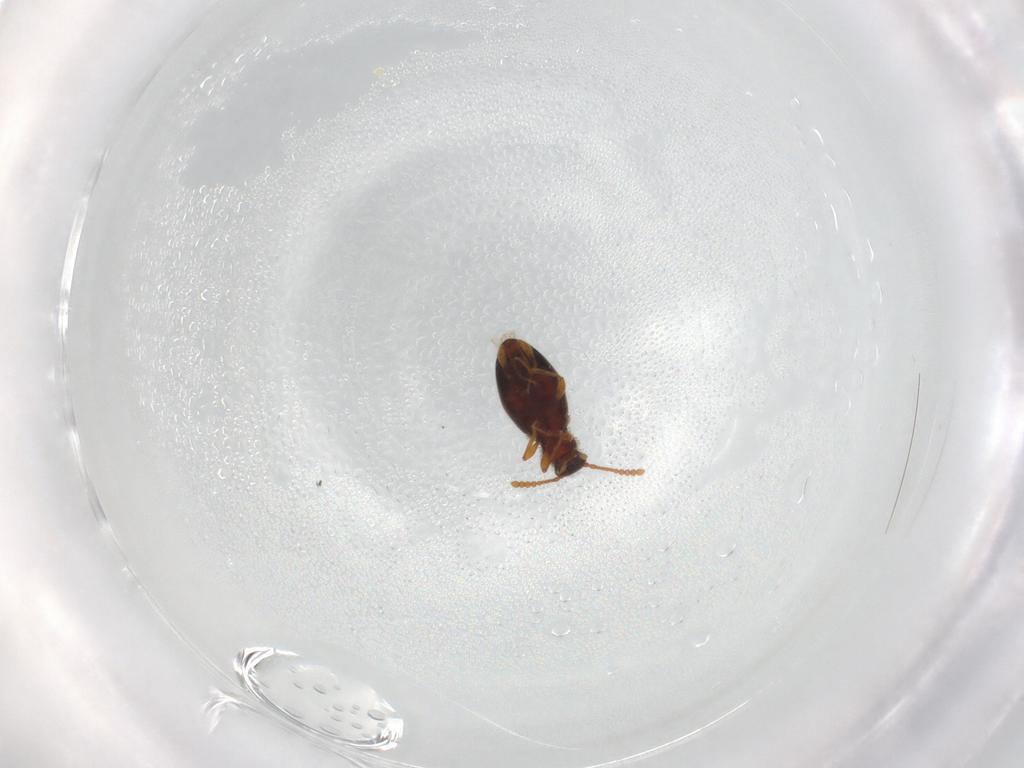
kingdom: Animalia
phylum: Arthropoda
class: Insecta
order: Coleoptera
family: Staphylinidae
